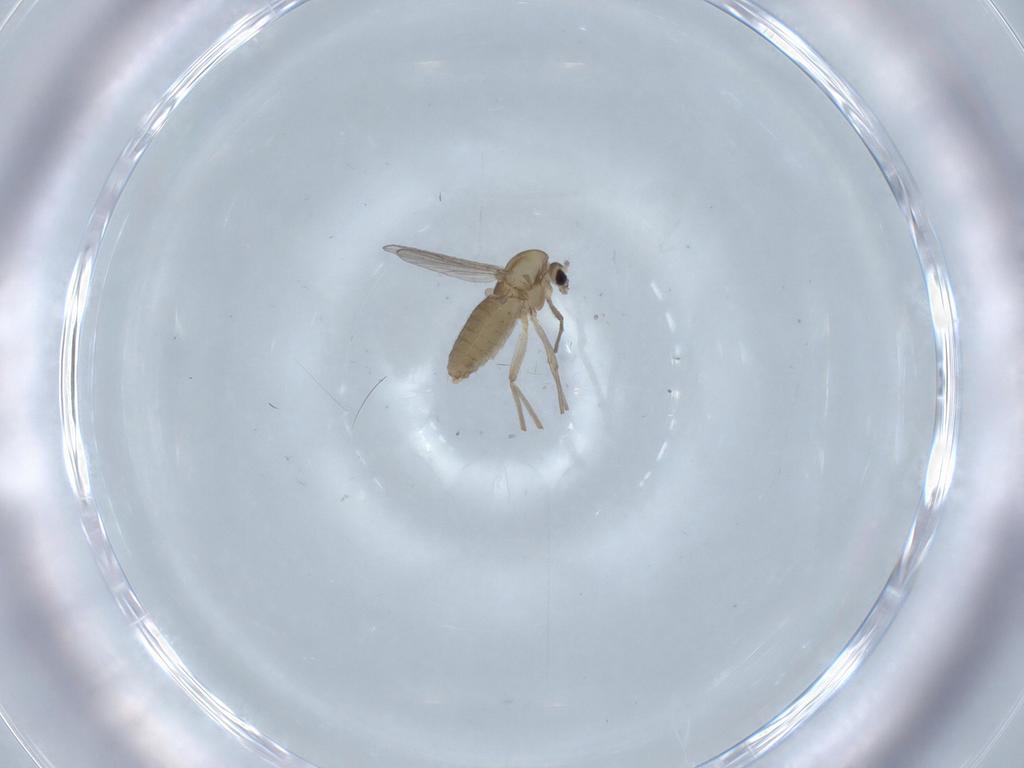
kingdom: Animalia
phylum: Arthropoda
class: Insecta
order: Diptera
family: Chironomidae
